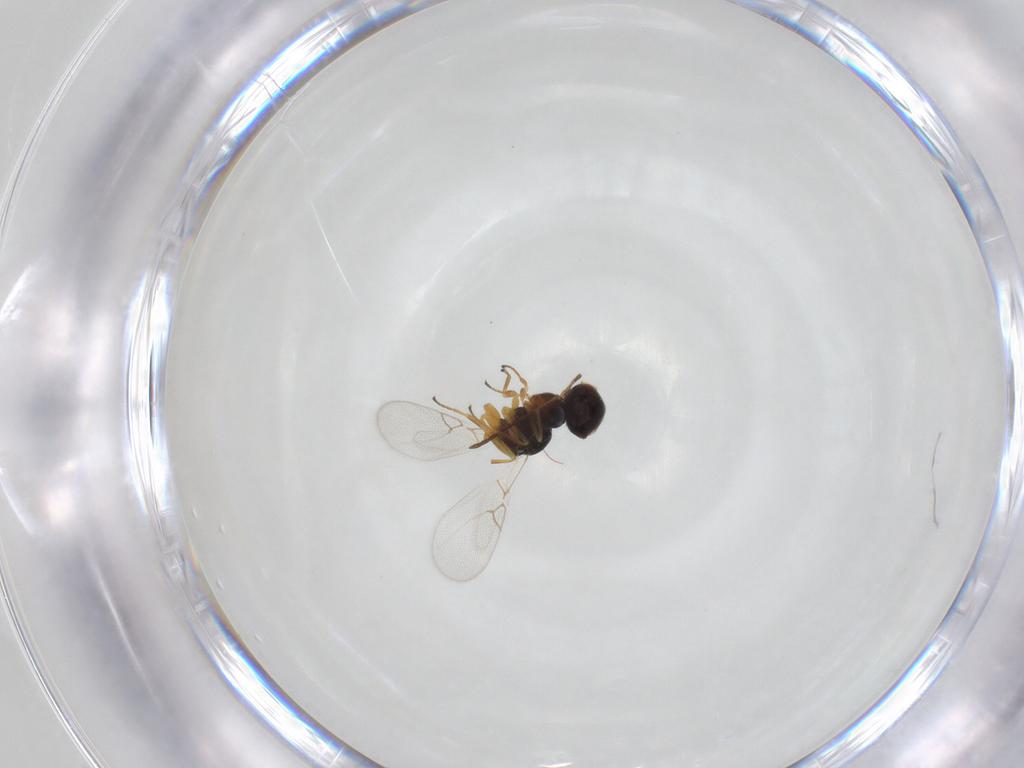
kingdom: Animalia
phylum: Arthropoda
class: Insecta
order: Hymenoptera
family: Figitidae
